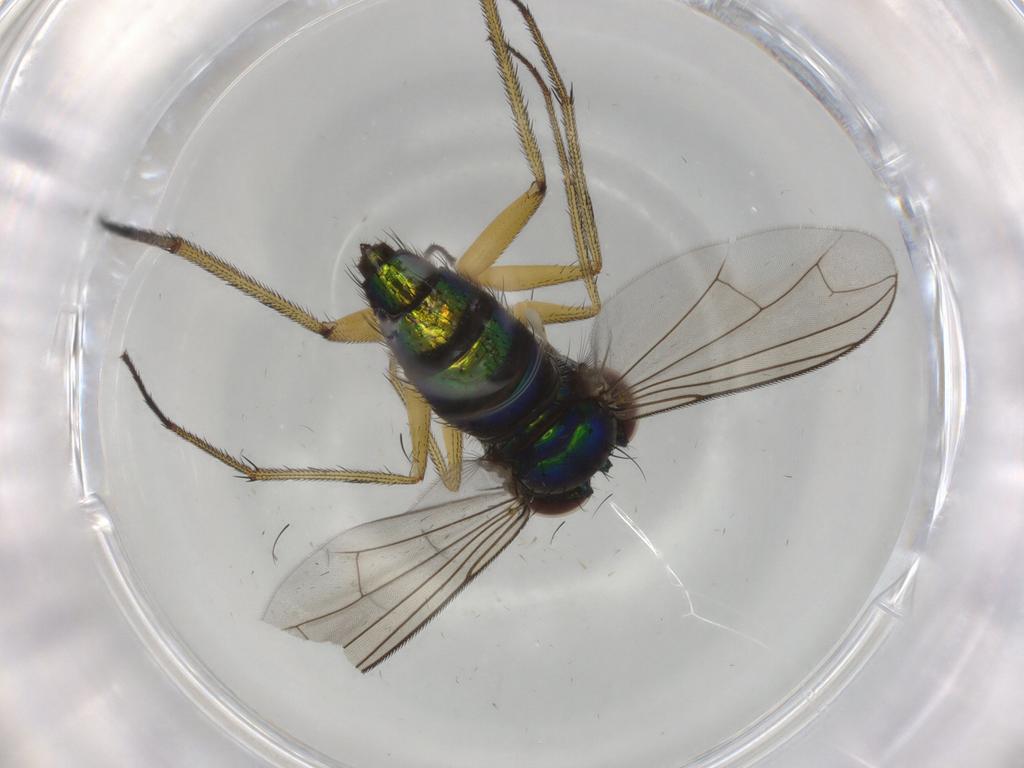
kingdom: Animalia
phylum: Arthropoda
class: Insecta
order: Diptera
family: Dolichopodidae
